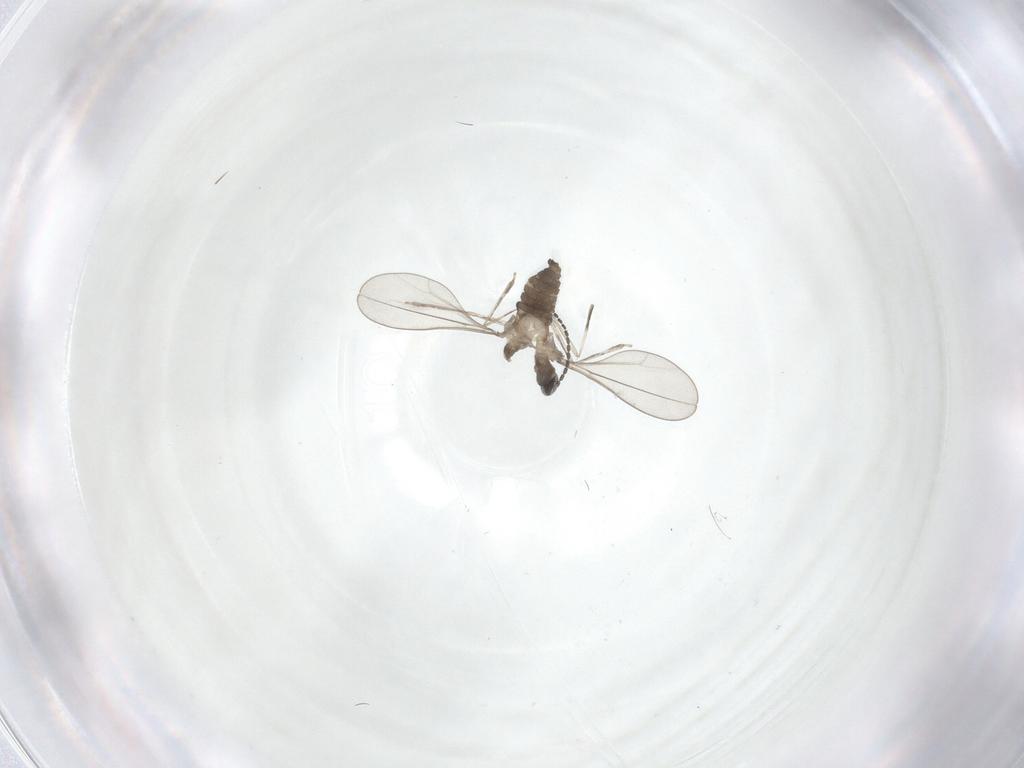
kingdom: Animalia
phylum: Arthropoda
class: Insecta
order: Diptera
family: Cecidomyiidae
